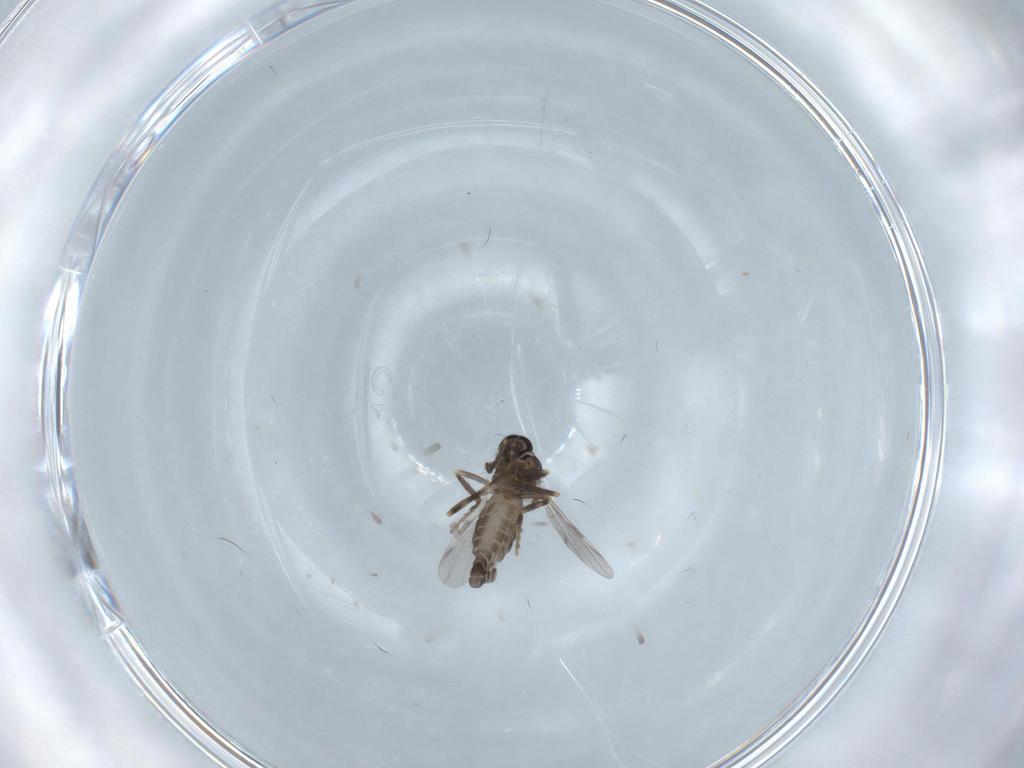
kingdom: Animalia
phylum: Arthropoda
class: Insecta
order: Diptera
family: Ceratopogonidae
